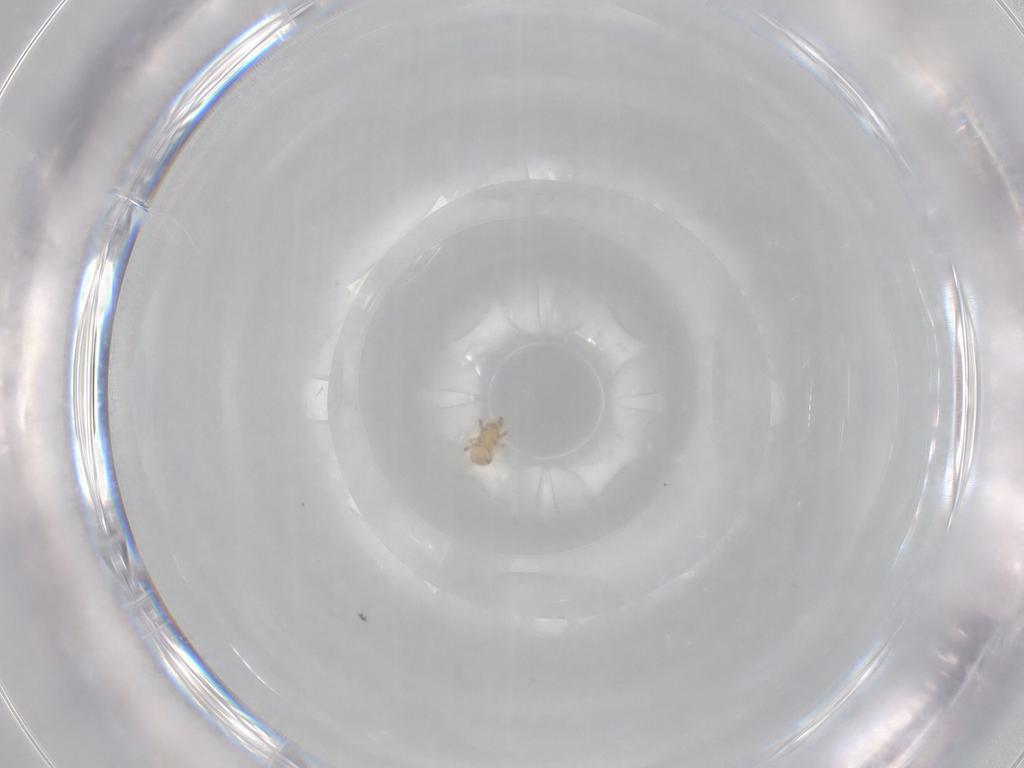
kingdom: Animalia
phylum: Arthropoda
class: Arachnida
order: Mesostigmata
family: Ascidae
